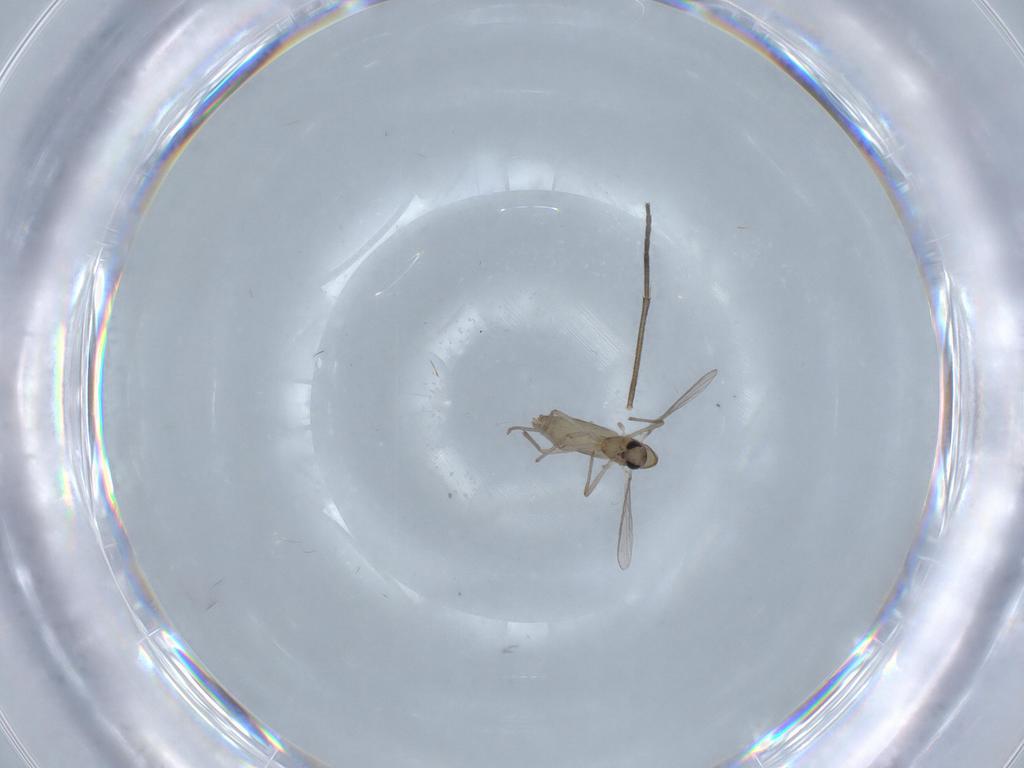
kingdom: Animalia
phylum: Arthropoda
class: Insecta
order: Diptera
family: Chironomidae
